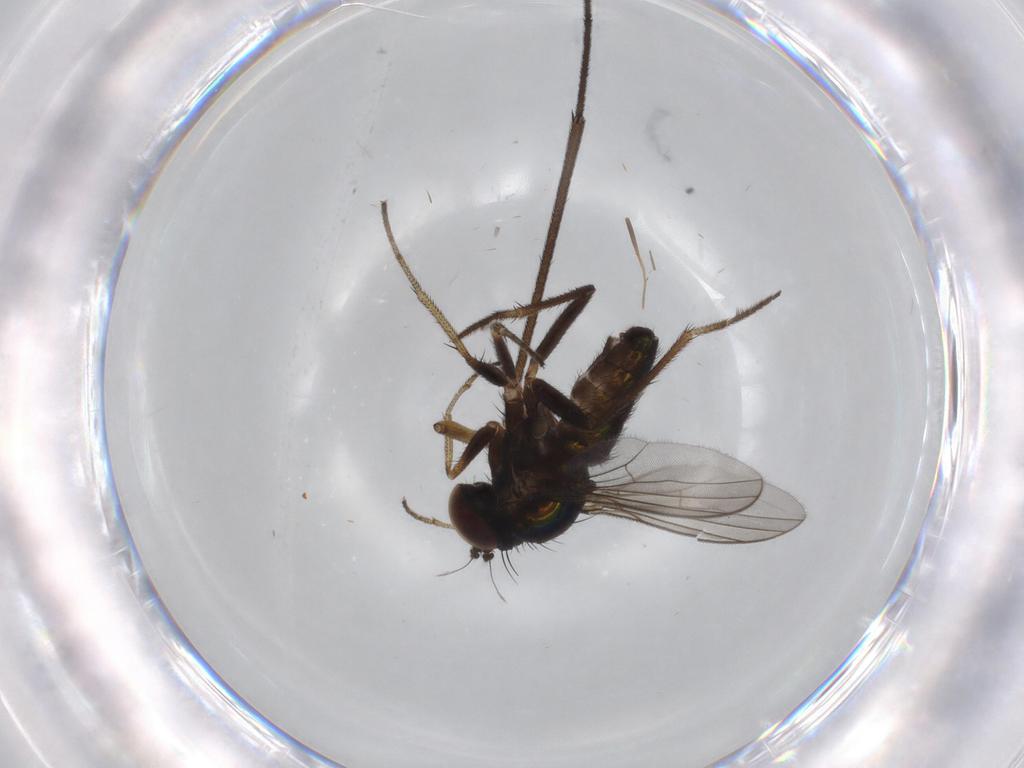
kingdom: Animalia
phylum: Arthropoda
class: Insecta
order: Diptera
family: Ditomyiidae
